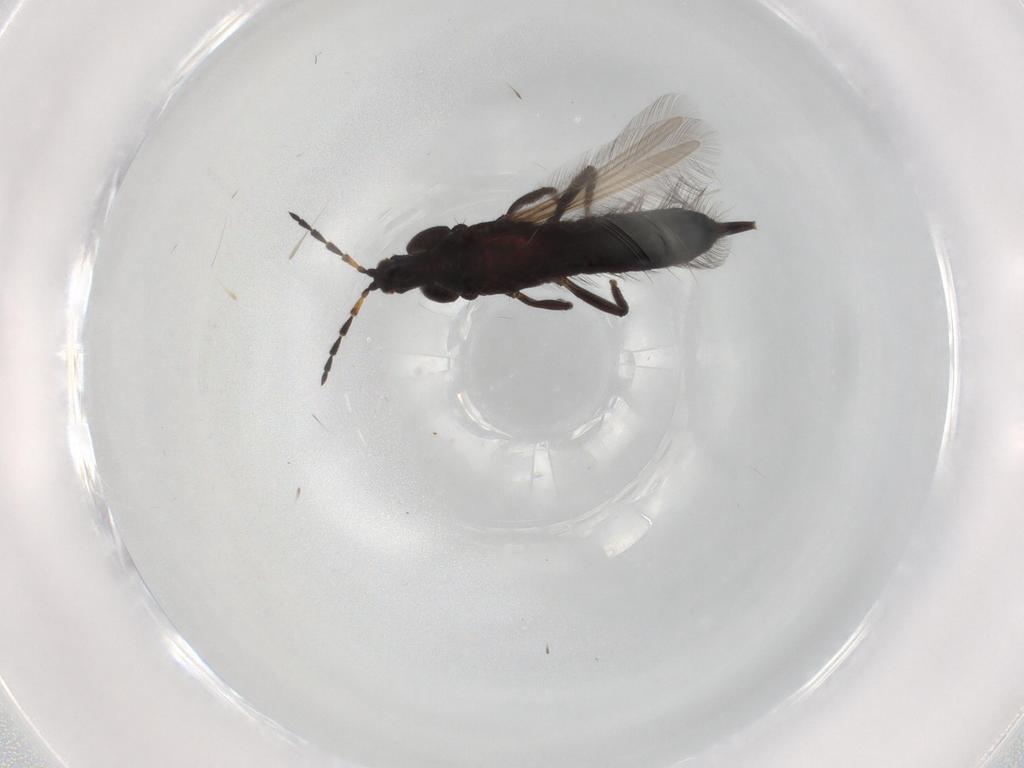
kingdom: Animalia
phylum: Arthropoda
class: Insecta
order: Thysanoptera
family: Phlaeothripidae
